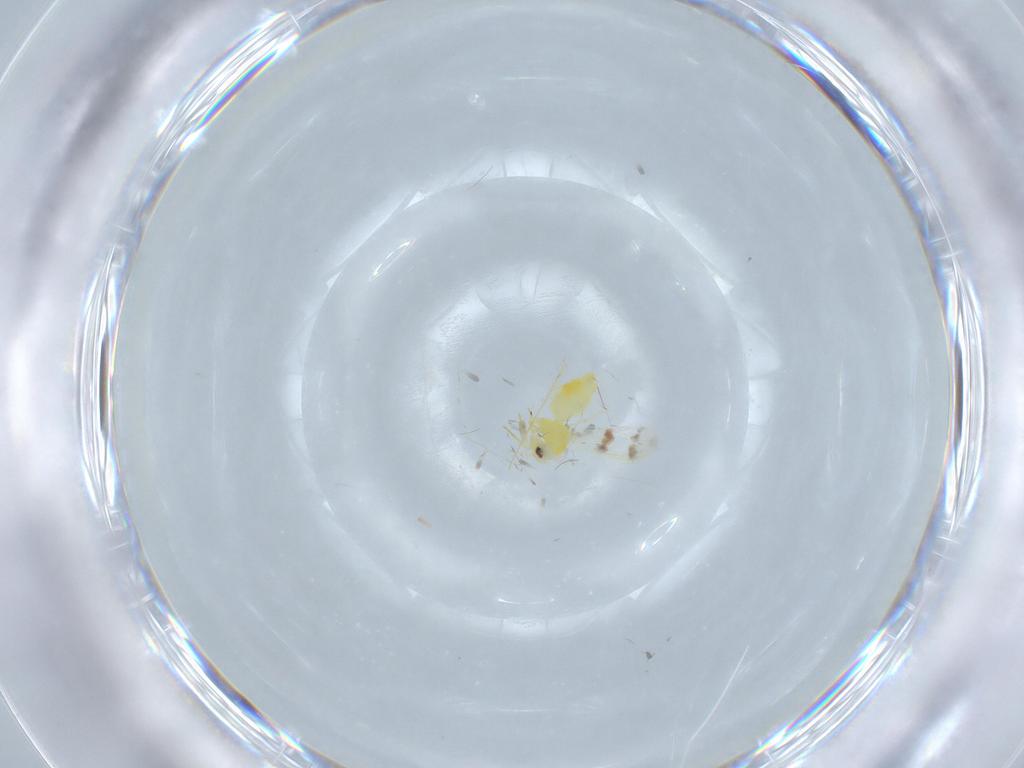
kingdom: Animalia
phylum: Arthropoda
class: Insecta
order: Hemiptera
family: Aleyrodidae
